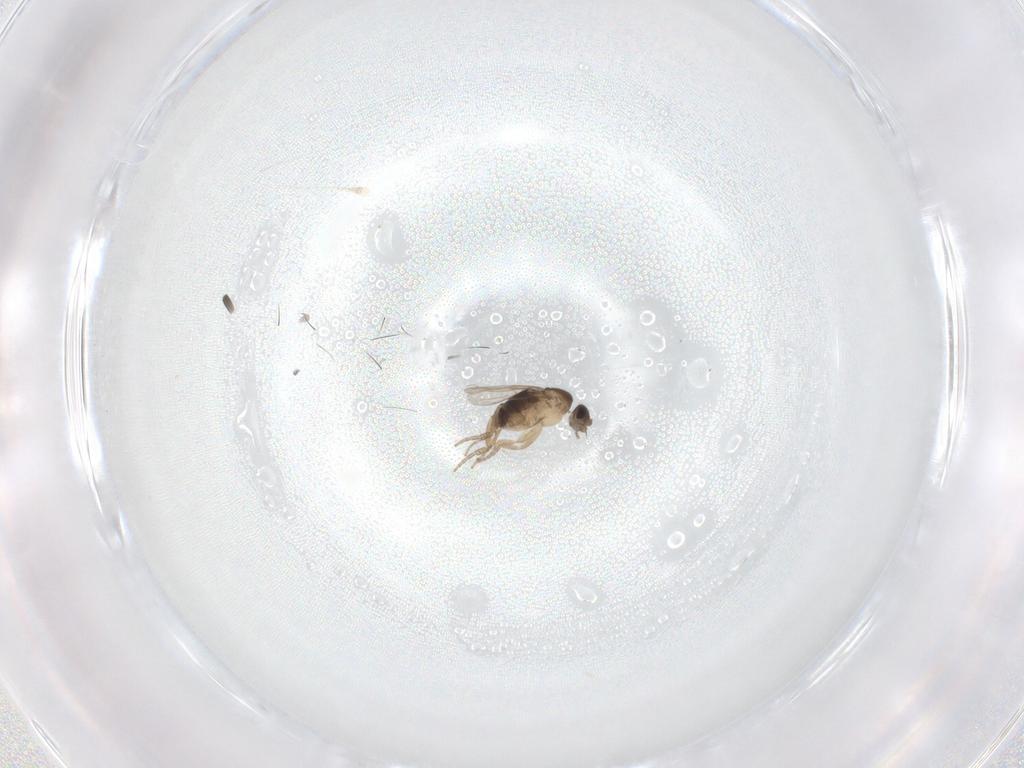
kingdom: Animalia
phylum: Arthropoda
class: Insecta
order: Diptera
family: Phoridae
